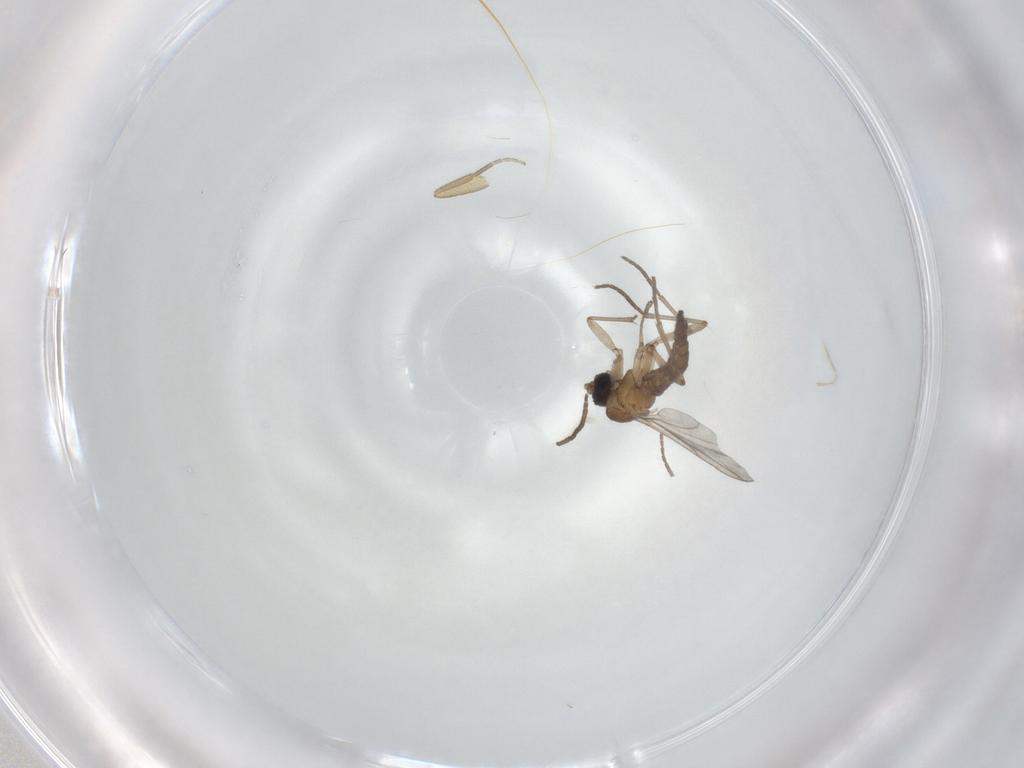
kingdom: Animalia
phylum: Arthropoda
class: Insecta
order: Diptera
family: Sciaridae
